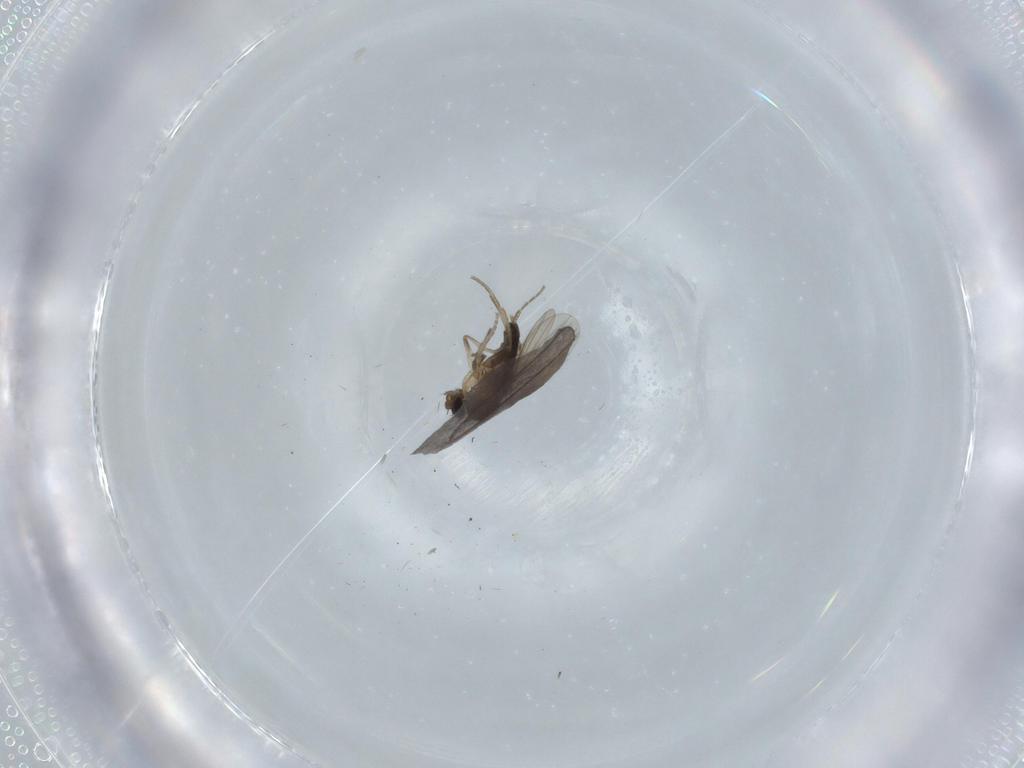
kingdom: Animalia
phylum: Arthropoda
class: Insecta
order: Diptera
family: Phoridae
